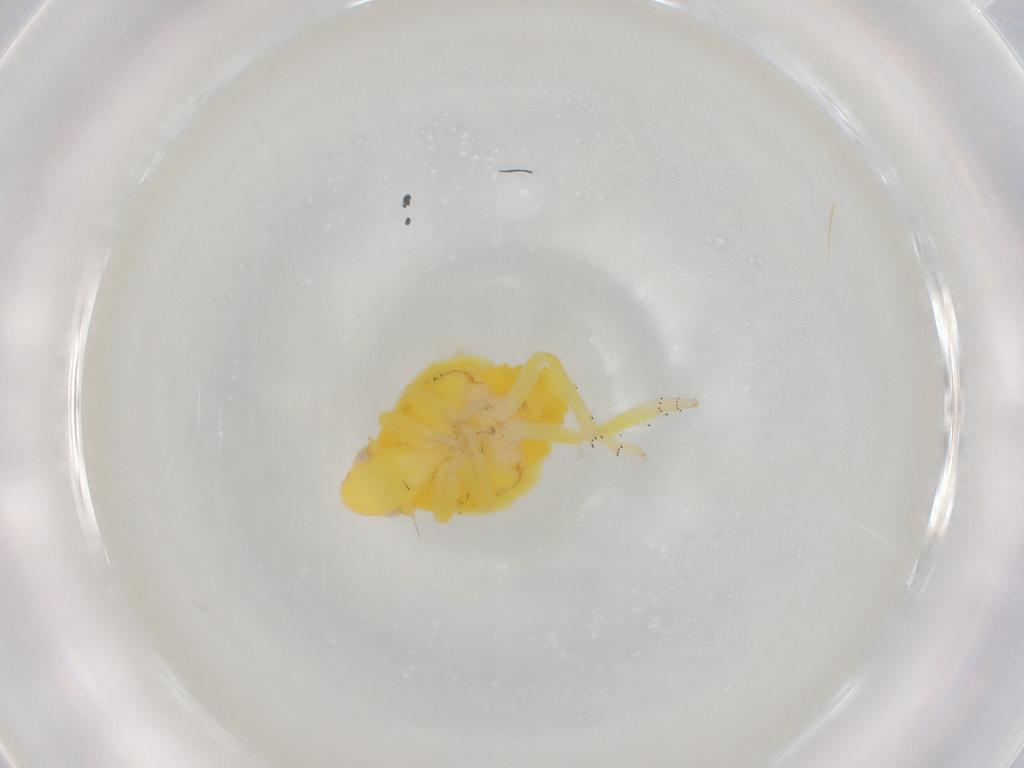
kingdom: Animalia
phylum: Arthropoda
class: Insecta
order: Hemiptera
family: Tropiduchidae
